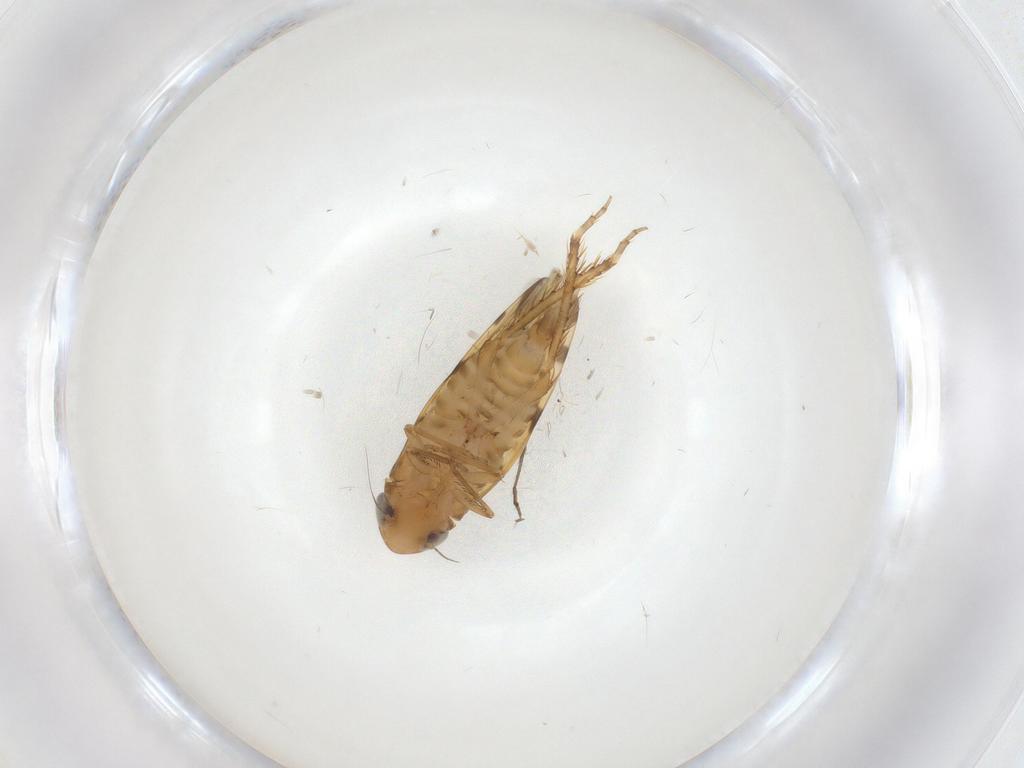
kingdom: Animalia
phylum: Arthropoda
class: Insecta
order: Hemiptera
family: Cicadellidae
